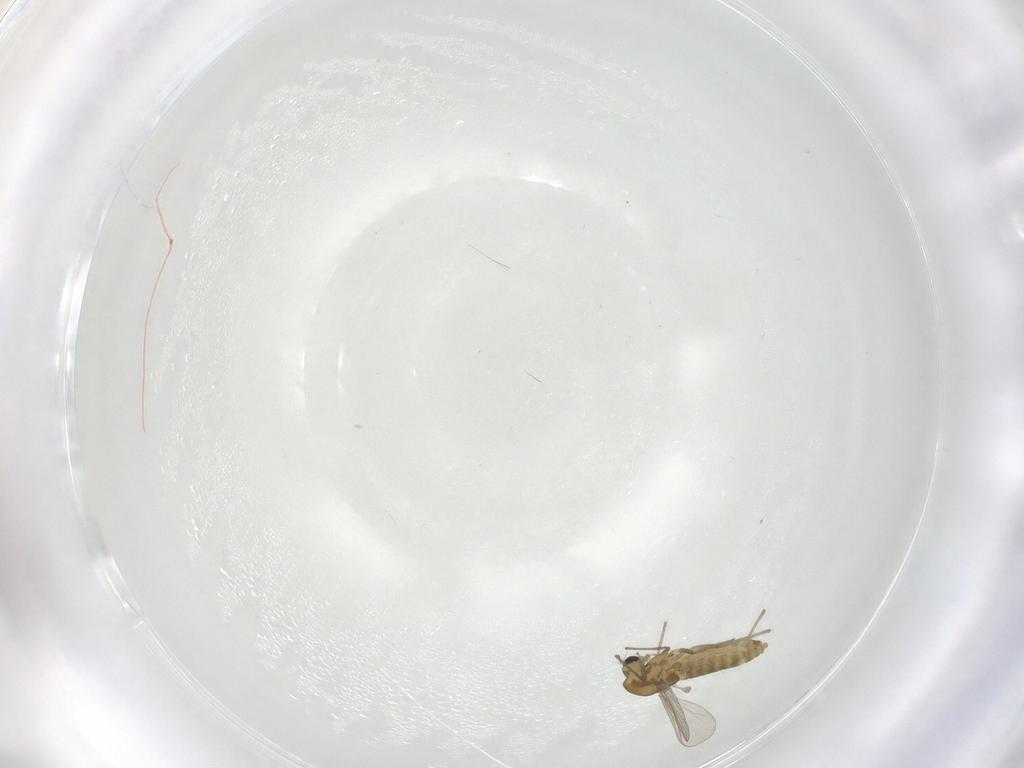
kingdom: Animalia
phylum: Arthropoda
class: Insecta
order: Diptera
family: Chironomidae
